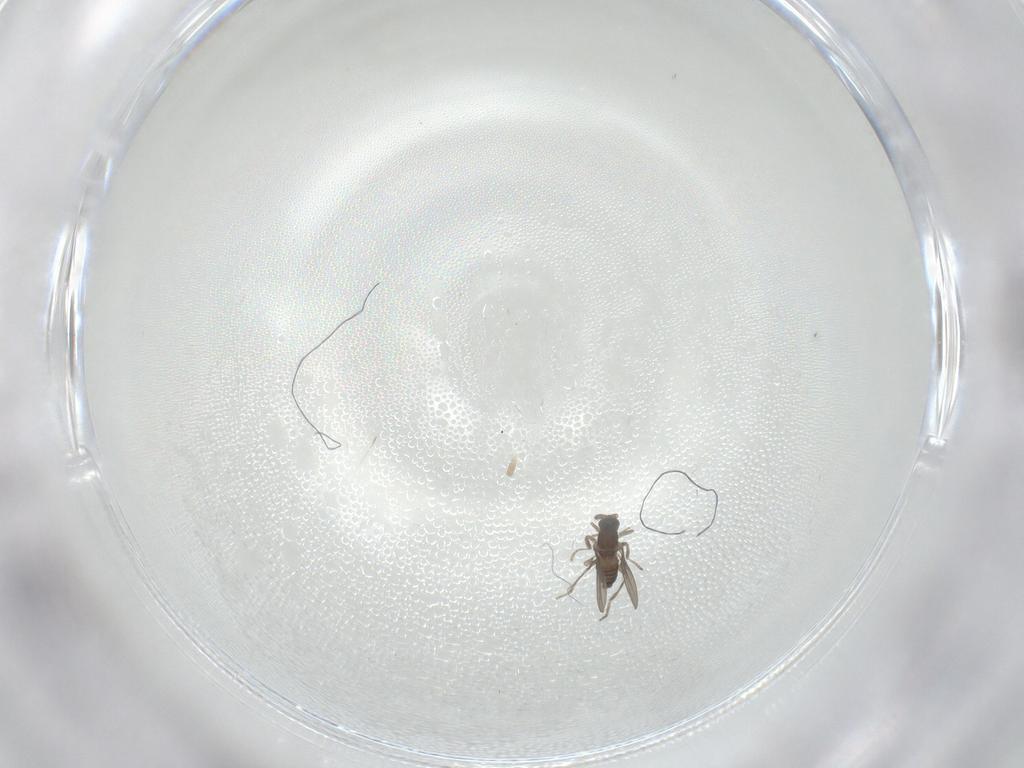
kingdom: Animalia
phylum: Arthropoda
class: Insecta
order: Diptera
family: Cecidomyiidae
